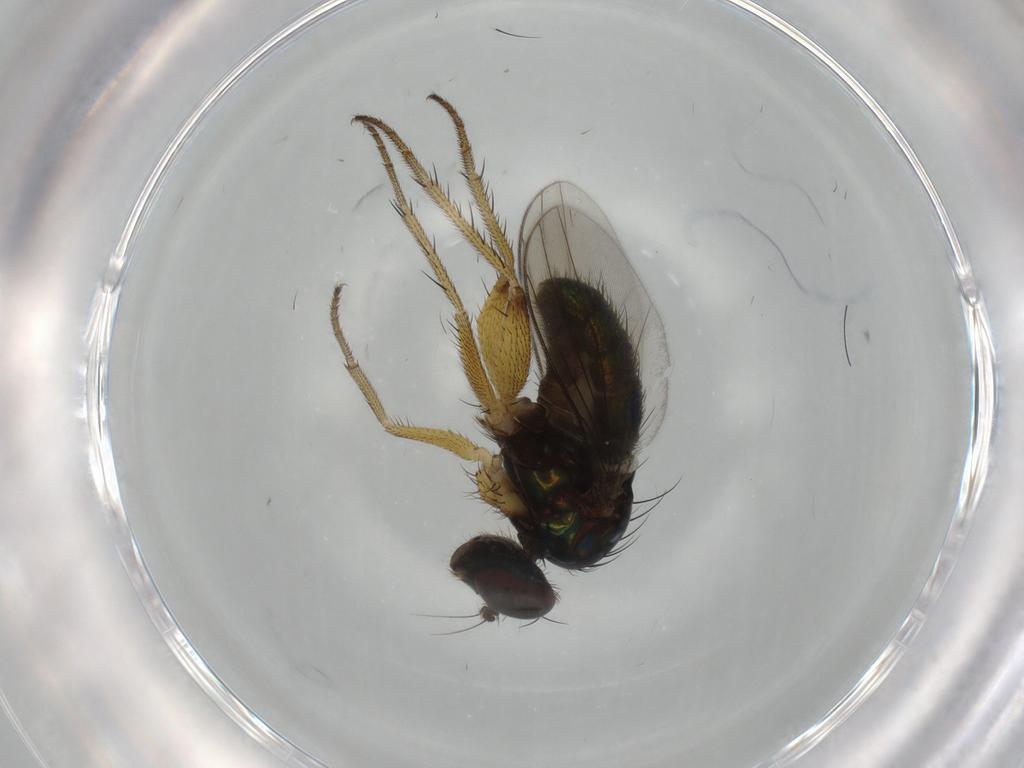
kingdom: Animalia
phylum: Arthropoda
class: Insecta
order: Diptera
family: Dolichopodidae
